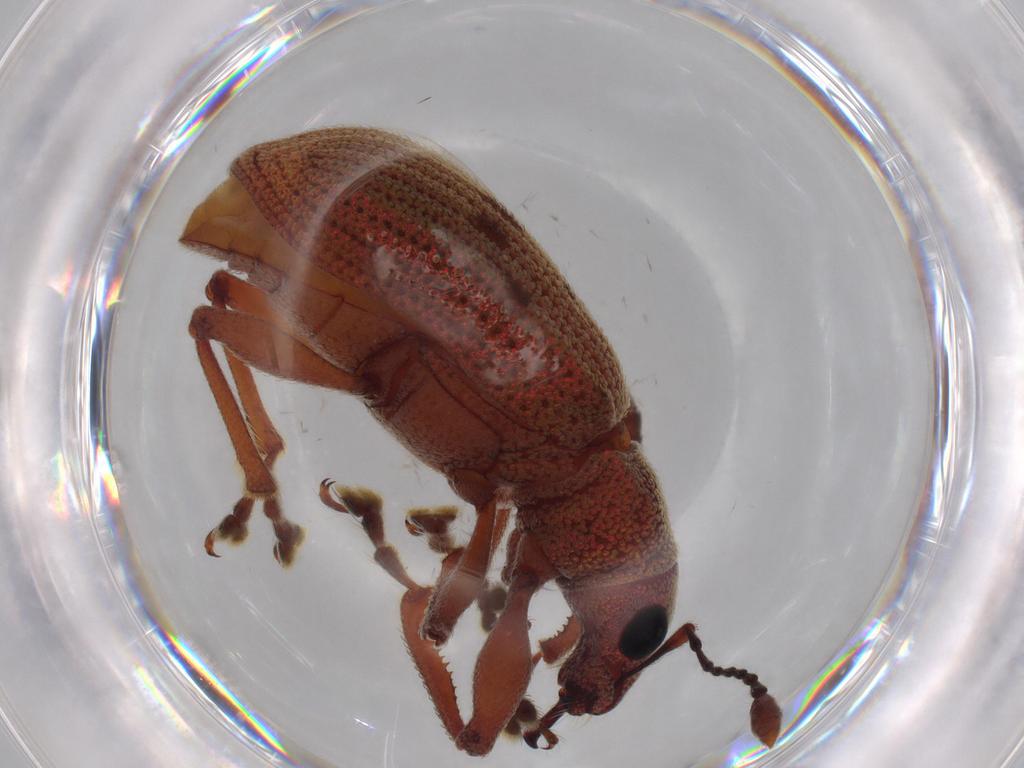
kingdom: Animalia
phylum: Arthropoda
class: Insecta
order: Coleoptera
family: Curculionidae
